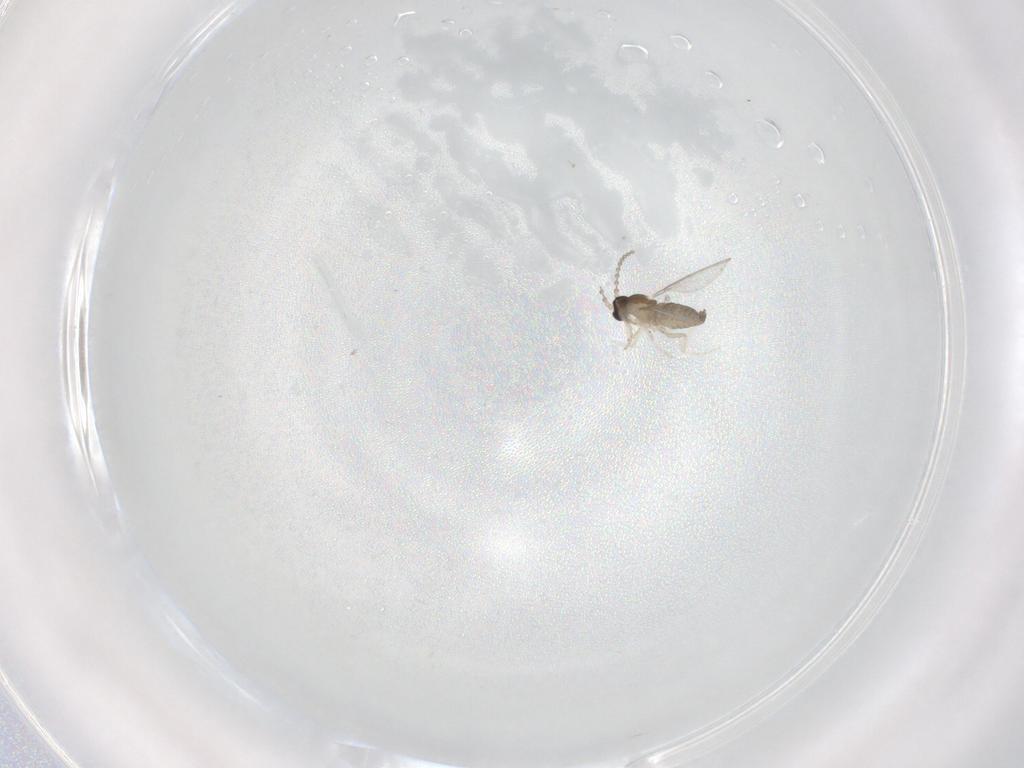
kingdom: Animalia
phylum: Arthropoda
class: Insecta
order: Diptera
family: Cecidomyiidae
